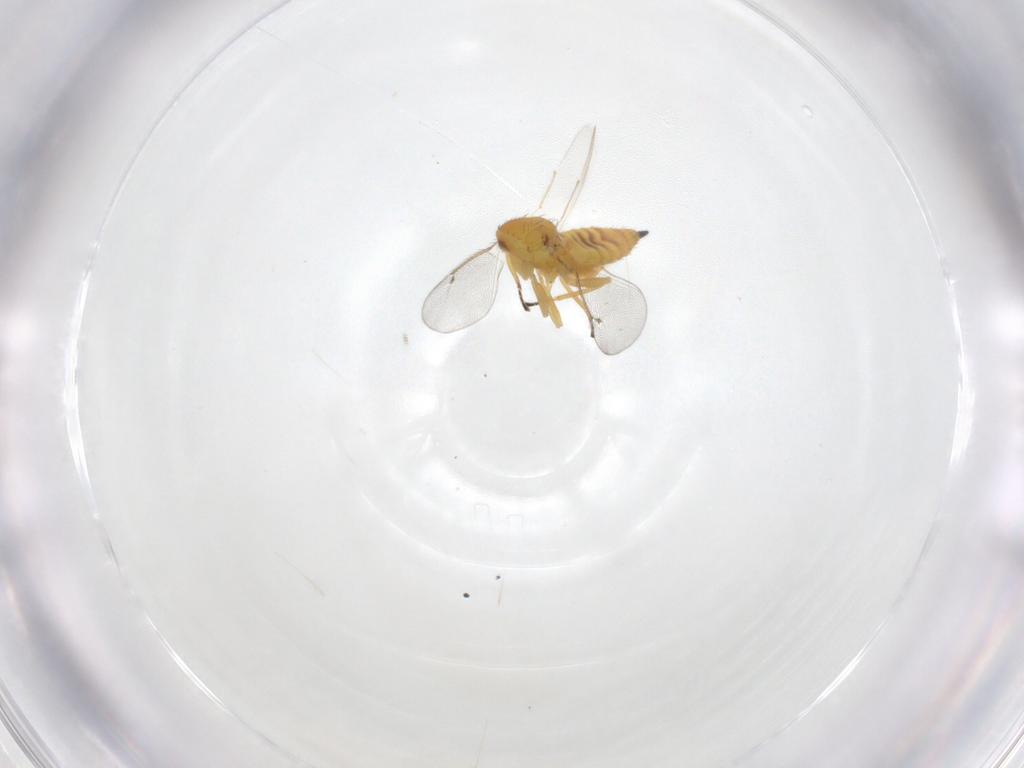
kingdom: Animalia
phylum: Arthropoda
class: Insecta
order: Hymenoptera
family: Eulophidae
